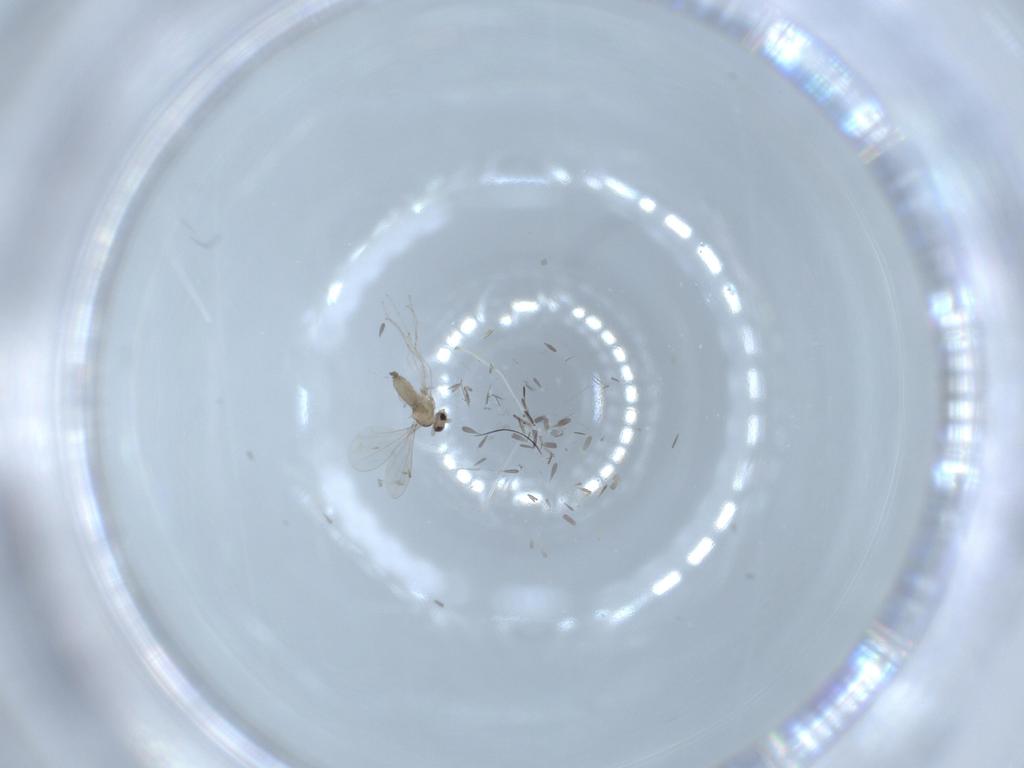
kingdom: Animalia
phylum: Arthropoda
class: Insecta
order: Diptera
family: Cecidomyiidae
